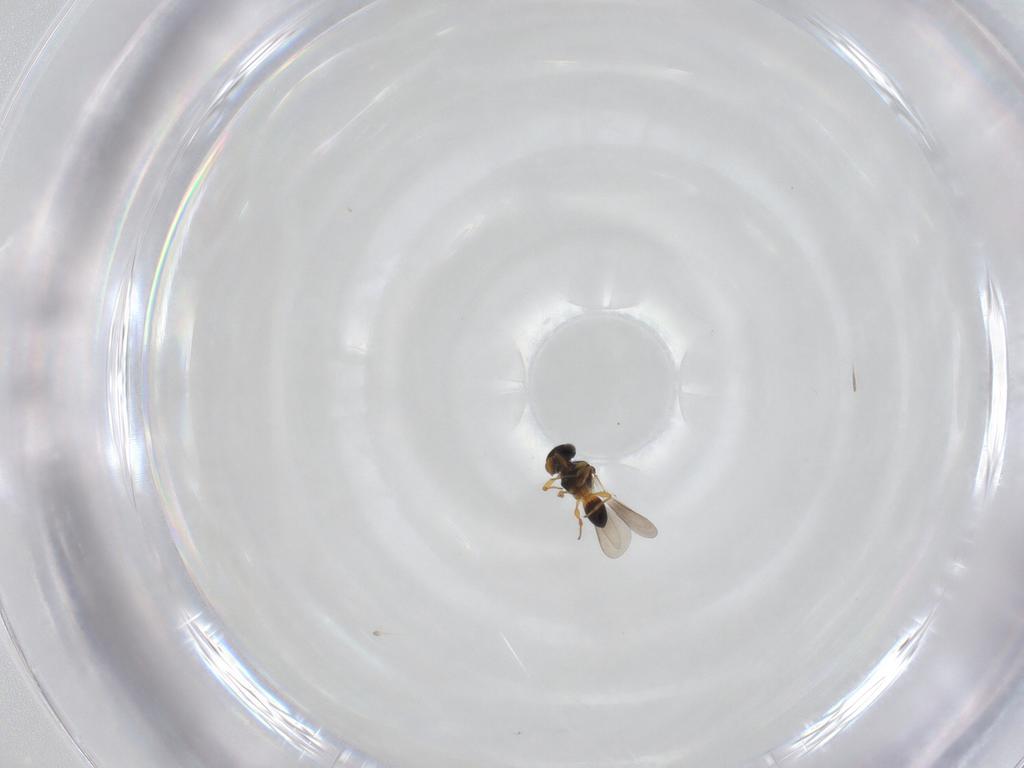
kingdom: Animalia
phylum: Arthropoda
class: Insecta
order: Hymenoptera
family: Platygastridae
